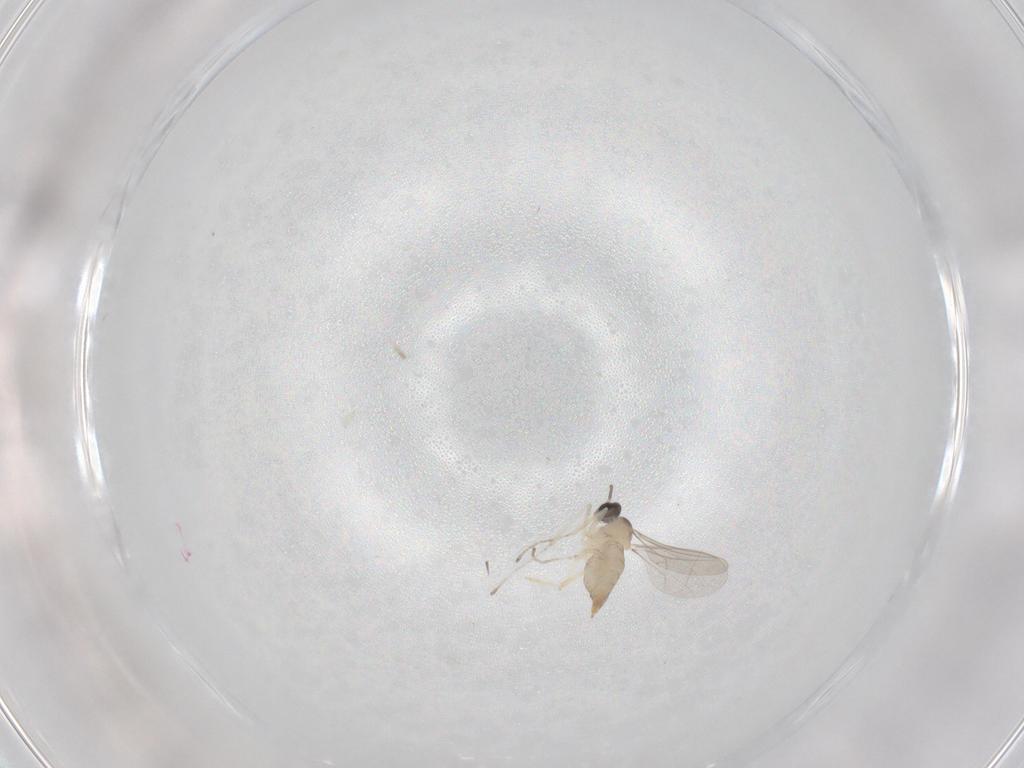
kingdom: Animalia
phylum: Arthropoda
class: Insecta
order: Diptera
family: Cecidomyiidae
